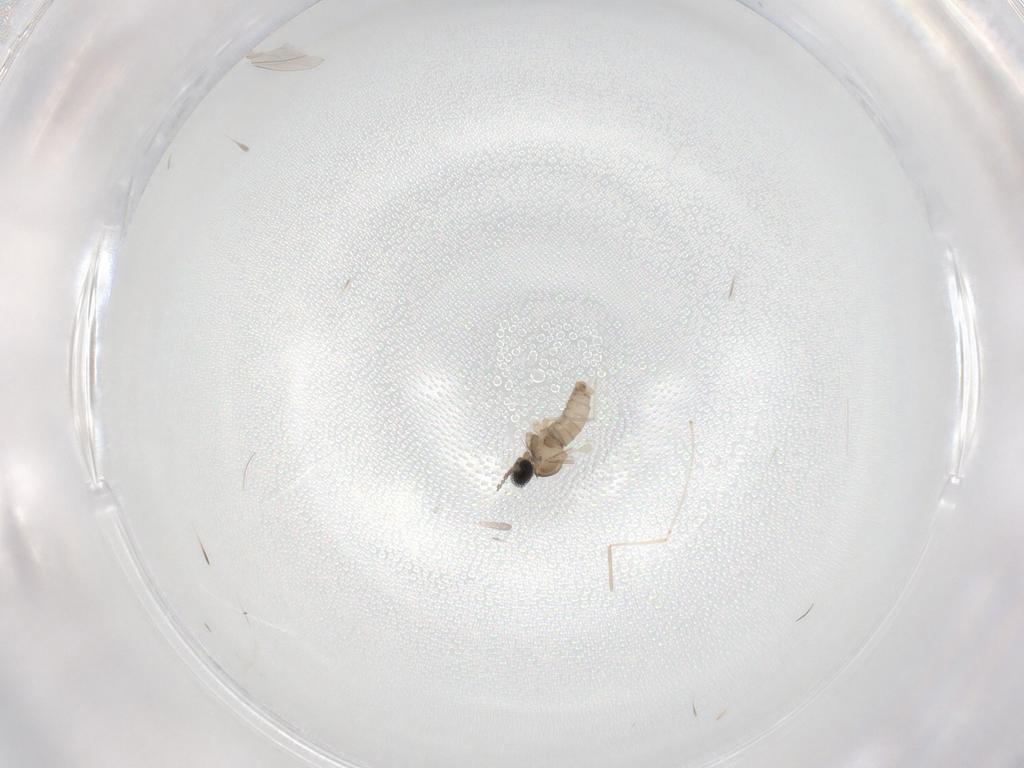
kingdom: Animalia
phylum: Arthropoda
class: Insecta
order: Diptera
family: Cecidomyiidae
